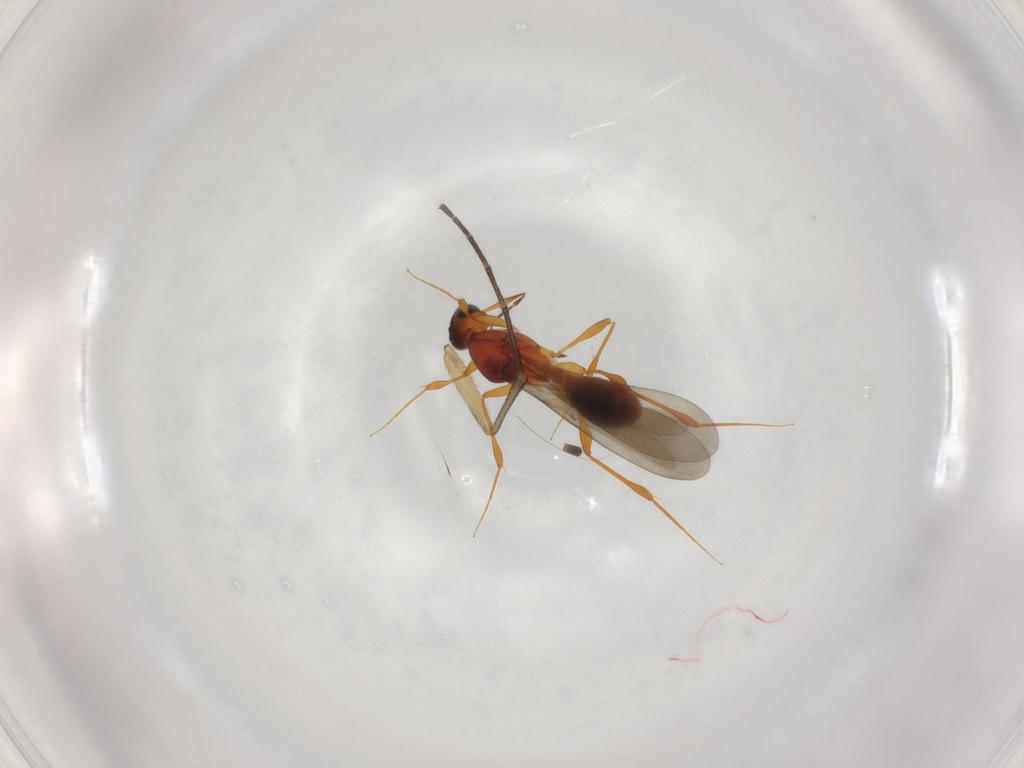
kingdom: Animalia
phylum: Arthropoda
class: Insecta
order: Hymenoptera
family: Platygastridae
